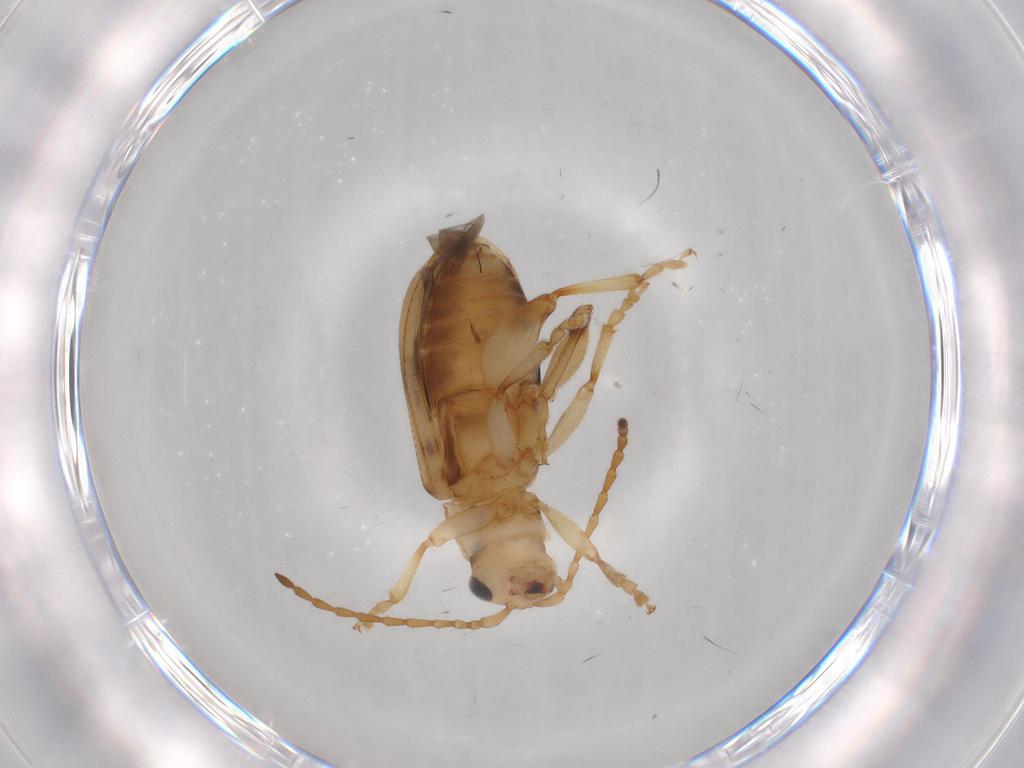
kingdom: Animalia
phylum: Arthropoda
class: Insecta
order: Coleoptera
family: Chrysomelidae
